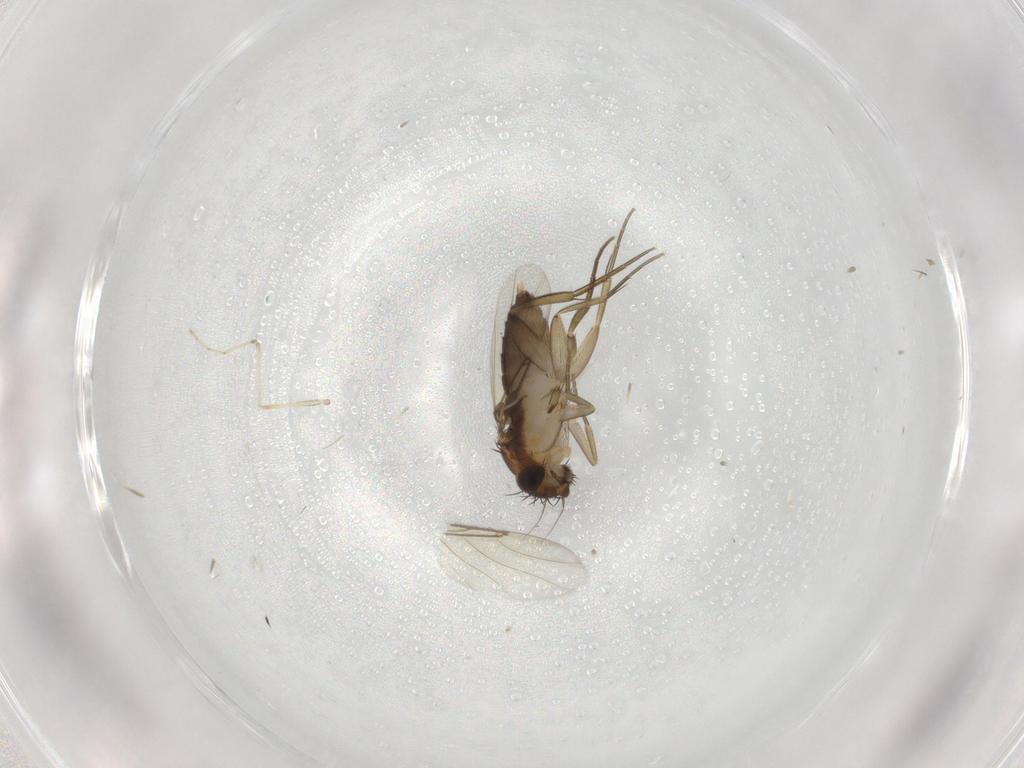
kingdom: Animalia
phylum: Arthropoda
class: Insecta
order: Diptera
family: Phoridae
